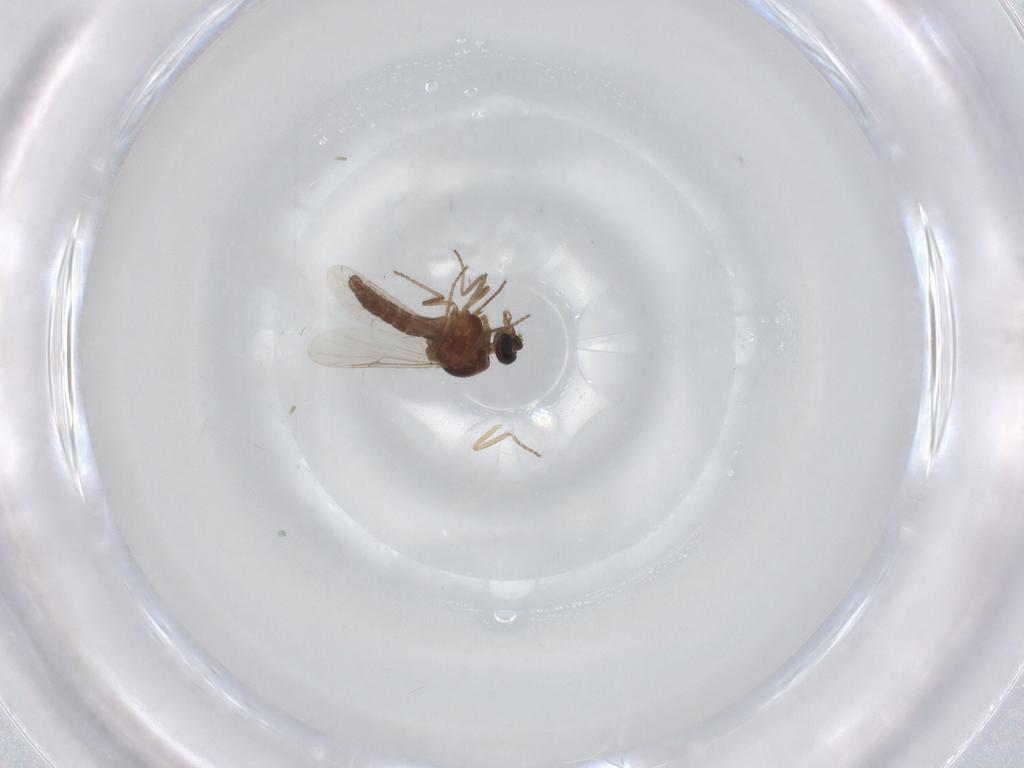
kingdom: Animalia
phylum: Arthropoda
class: Insecta
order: Diptera
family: Ceratopogonidae
